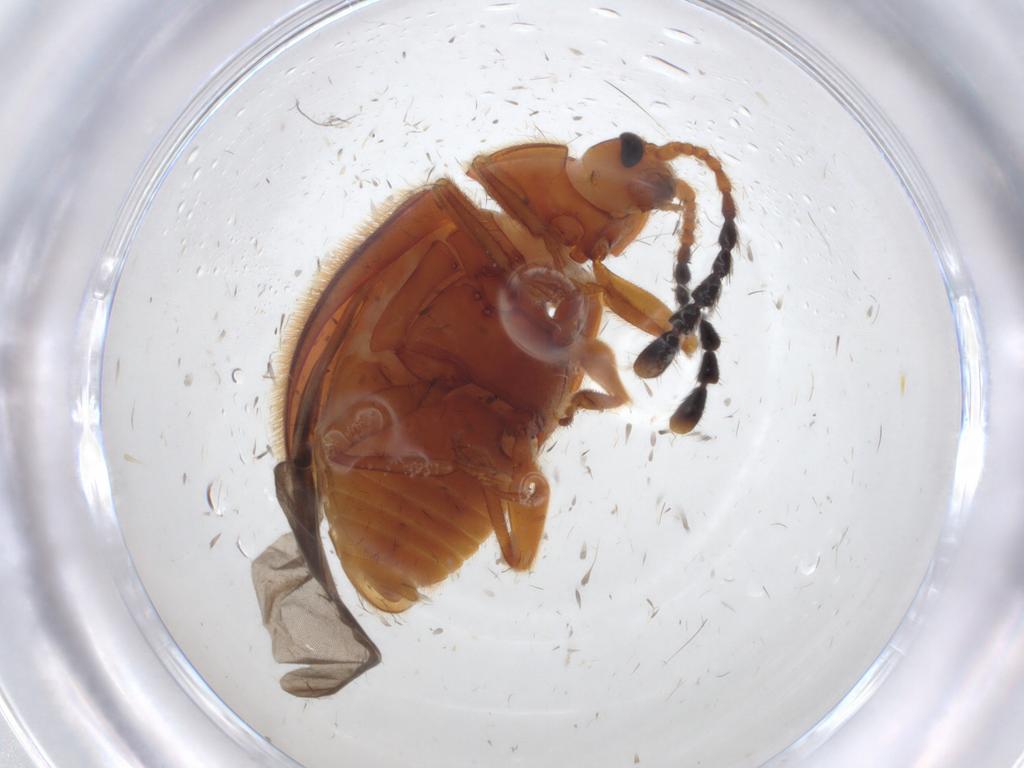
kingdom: Animalia
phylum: Arthropoda
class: Insecta
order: Coleoptera
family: Endomychidae
